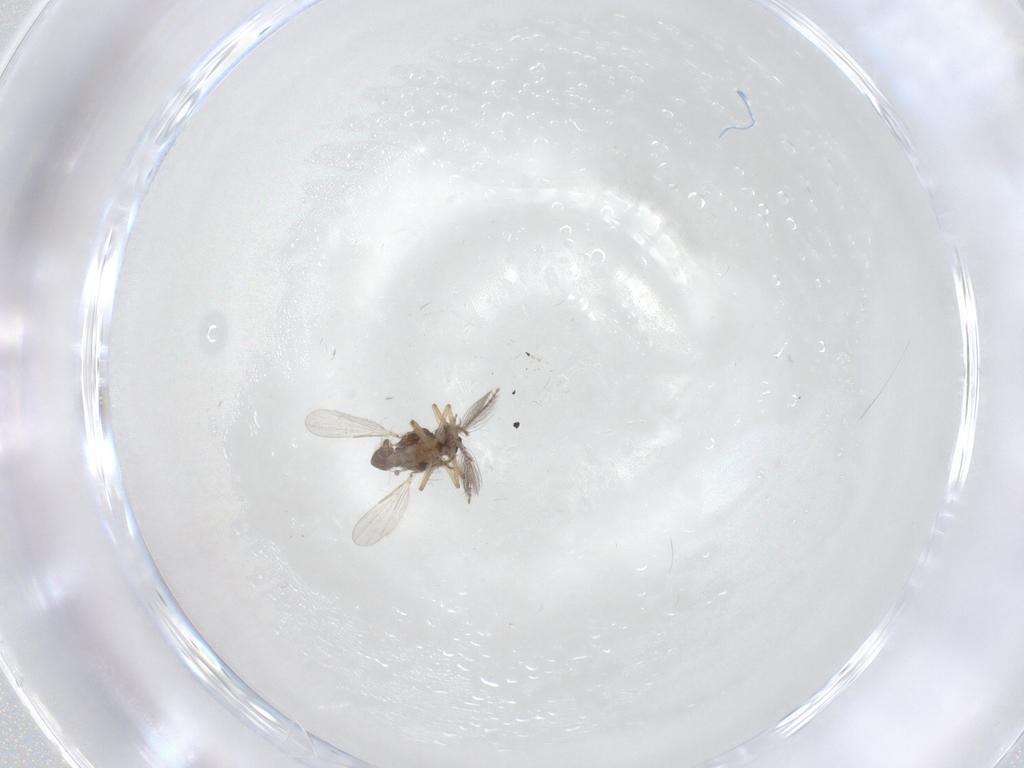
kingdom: Animalia
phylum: Arthropoda
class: Insecta
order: Diptera
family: Ceratopogonidae
